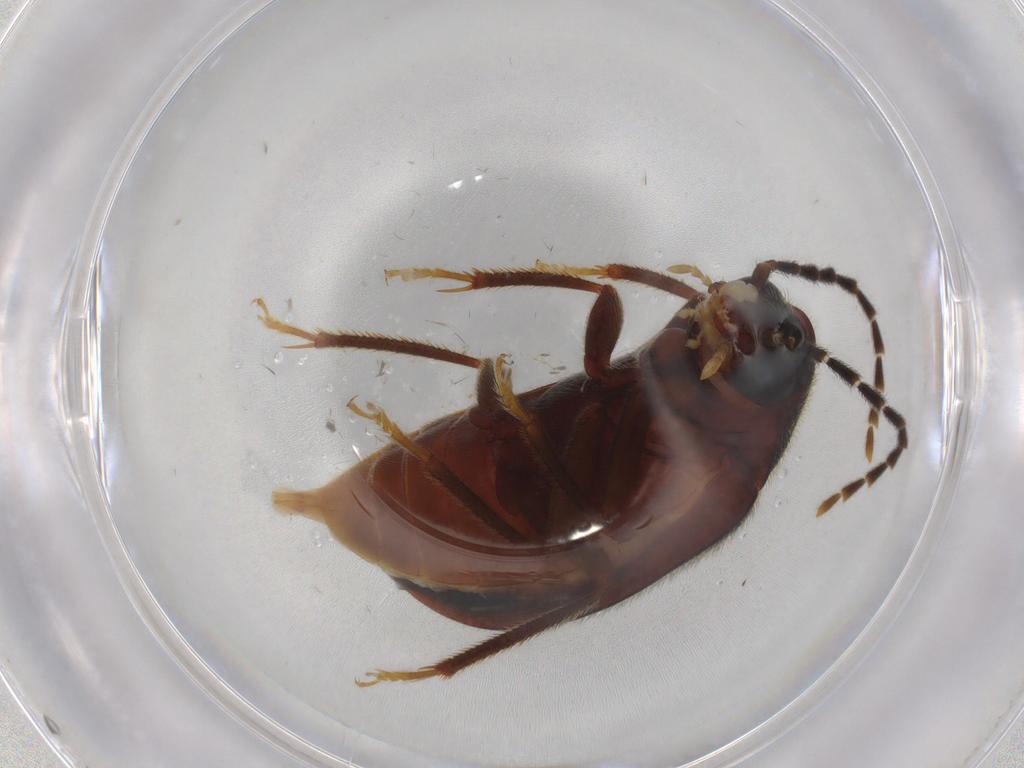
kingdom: Animalia
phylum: Arthropoda
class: Insecta
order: Coleoptera
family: Ptilodactylidae
